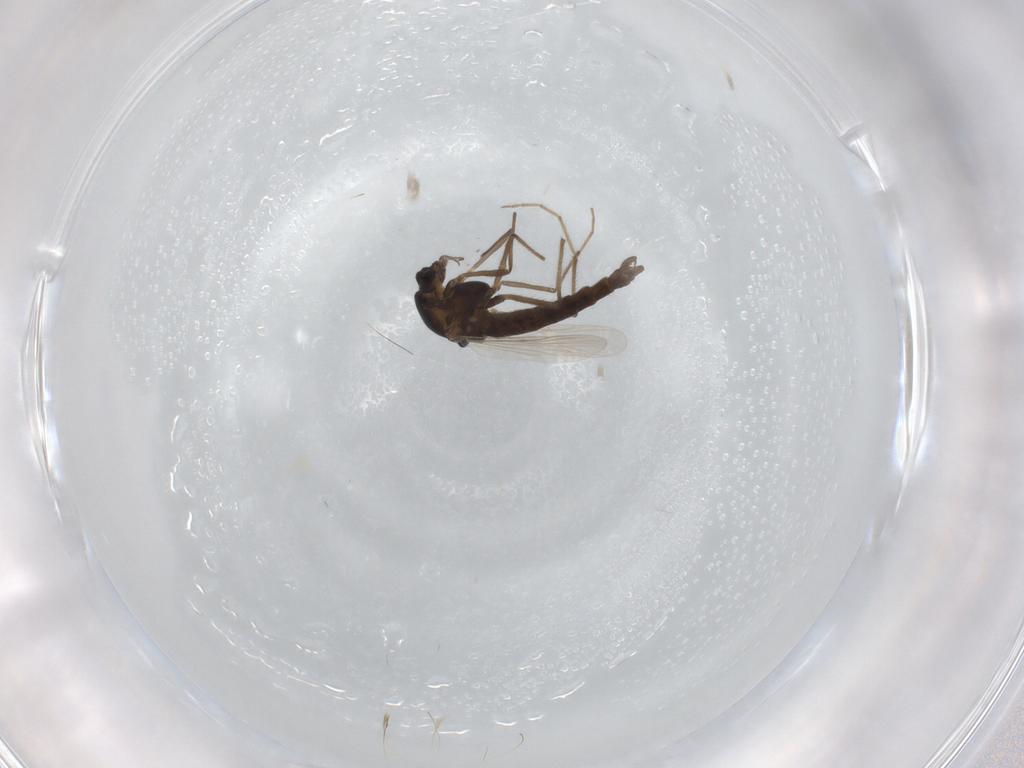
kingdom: Animalia
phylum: Arthropoda
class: Insecta
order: Diptera
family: Chironomidae
